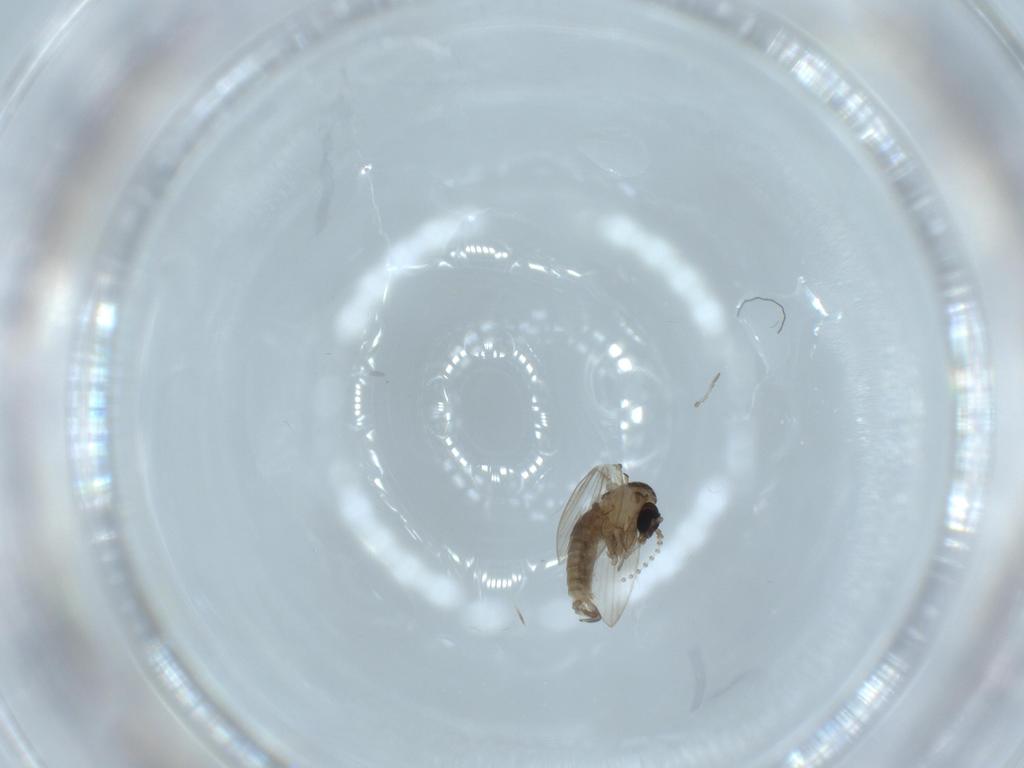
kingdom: Animalia
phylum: Arthropoda
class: Insecta
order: Diptera
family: Psychodidae
